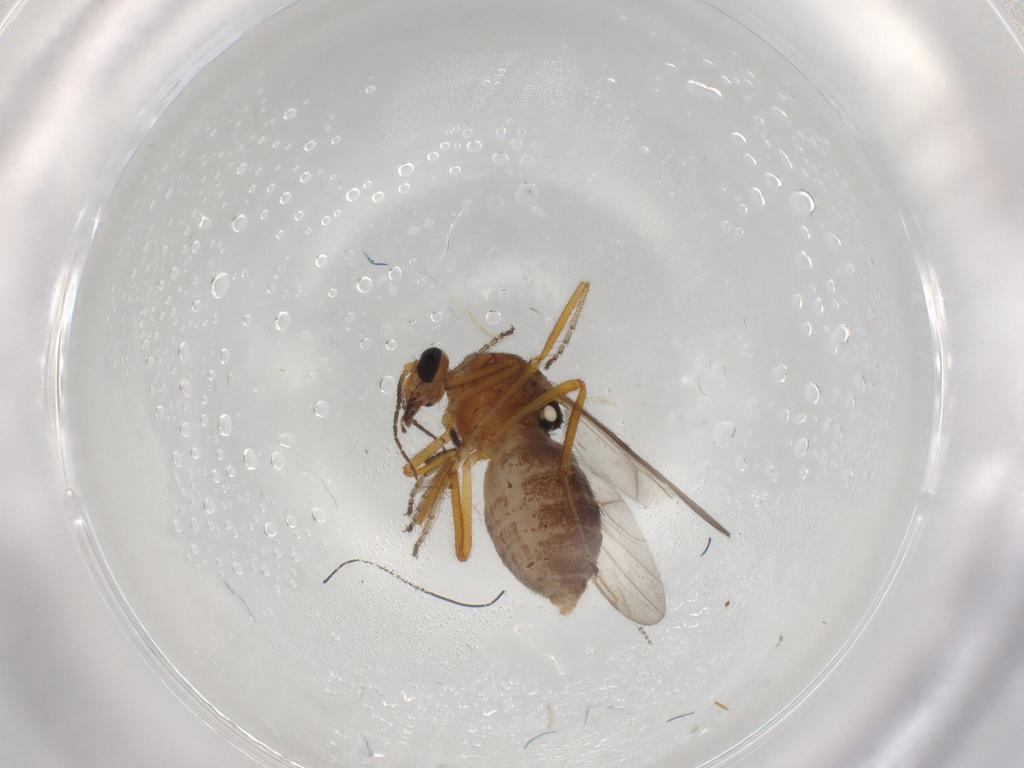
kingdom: Animalia
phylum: Arthropoda
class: Insecta
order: Diptera
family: Ceratopogonidae
